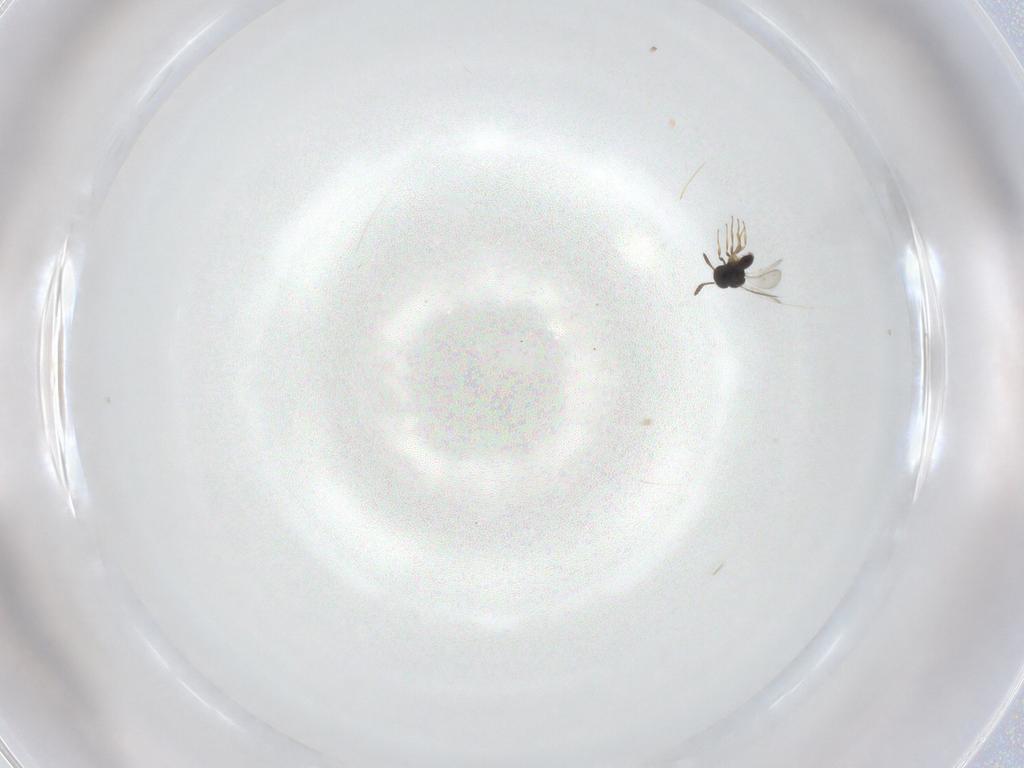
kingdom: Animalia
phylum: Arthropoda
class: Insecta
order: Hymenoptera
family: Scelionidae
